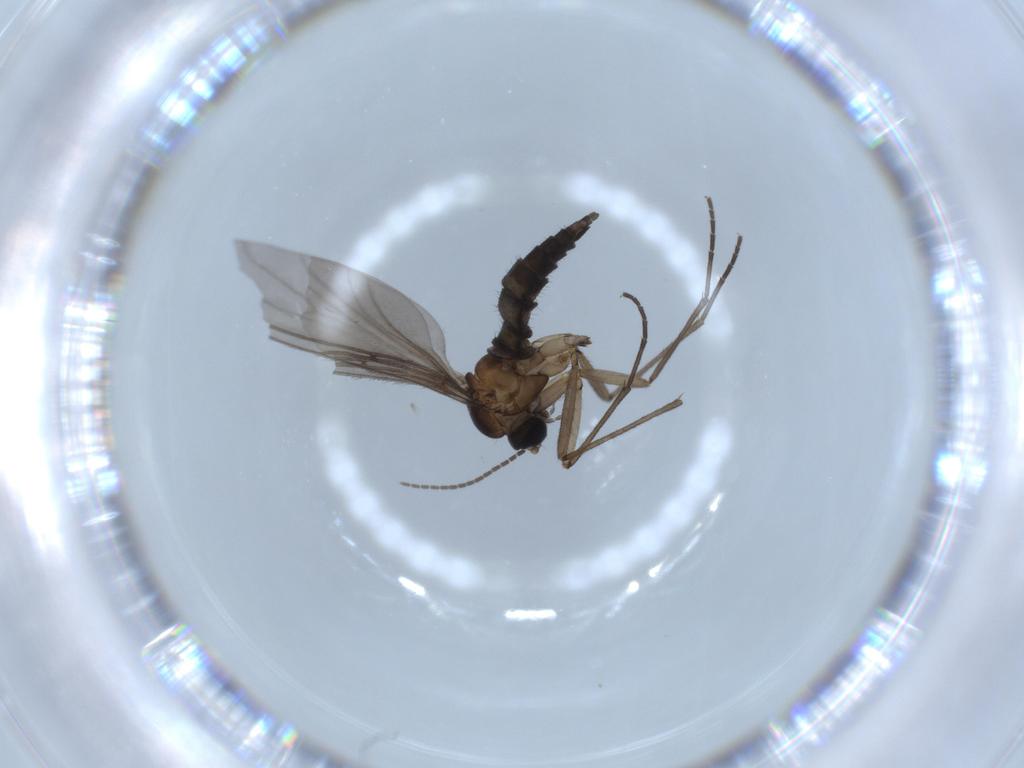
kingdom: Animalia
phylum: Arthropoda
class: Insecta
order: Diptera
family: Sciaridae
